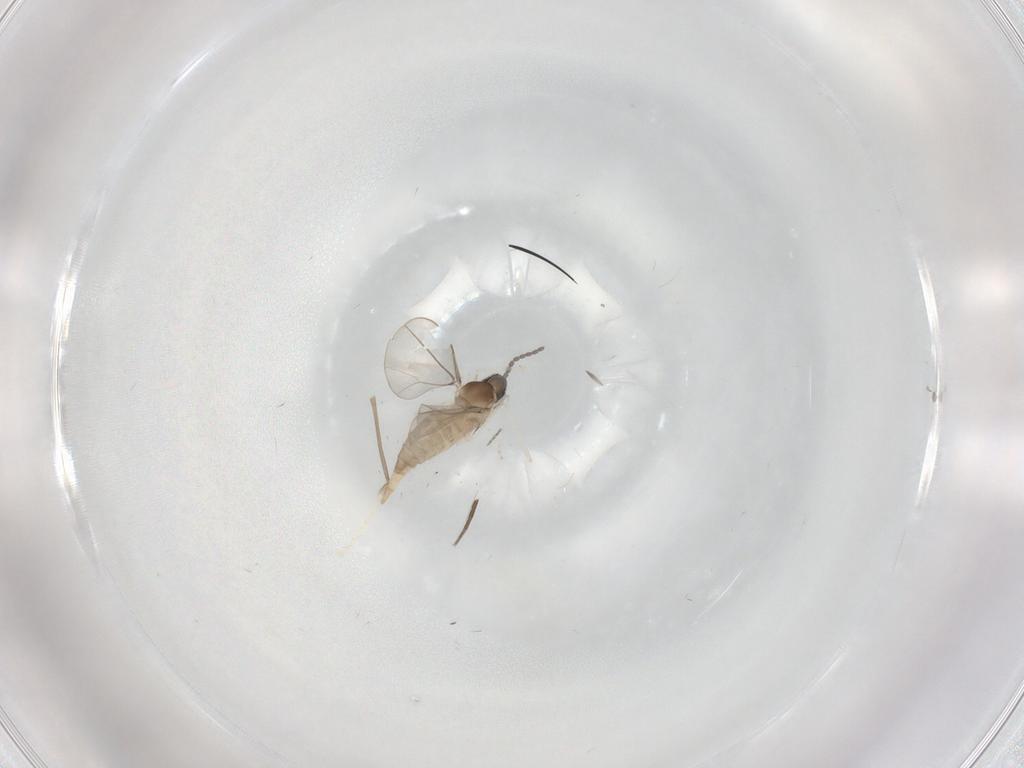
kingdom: Animalia
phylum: Arthropoda
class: Insecta
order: Diptera
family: Cecidomyiidae
